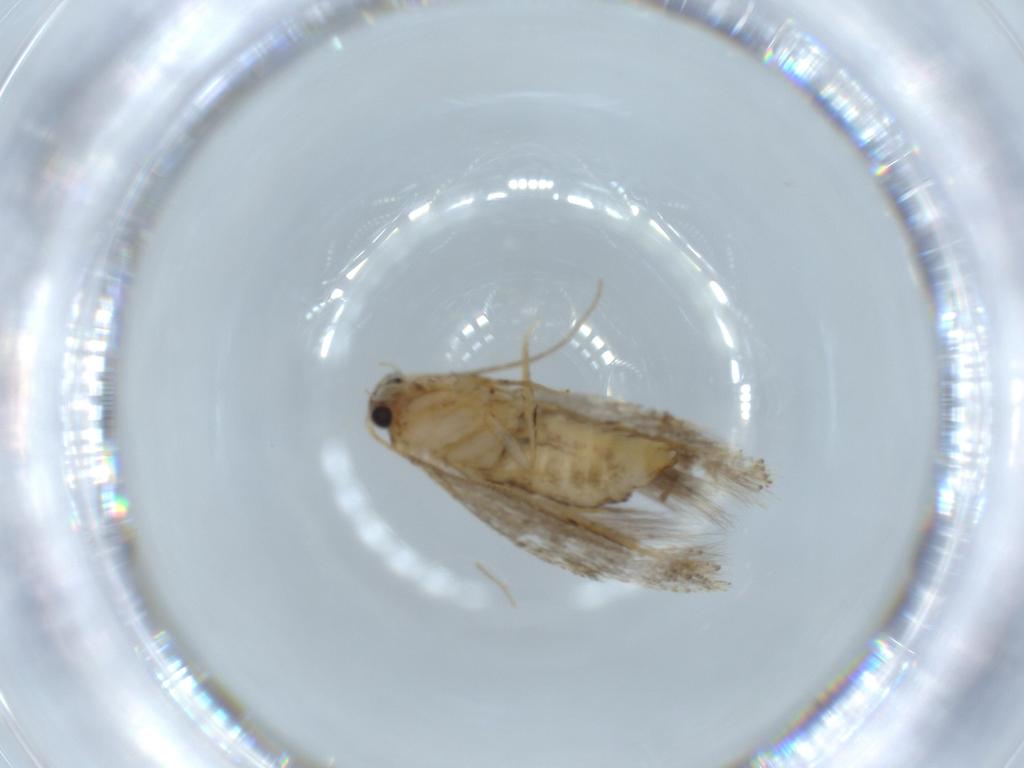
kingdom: Animalia
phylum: Arthropoda
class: Insecta
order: Lepidoptera
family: Meessiidae
